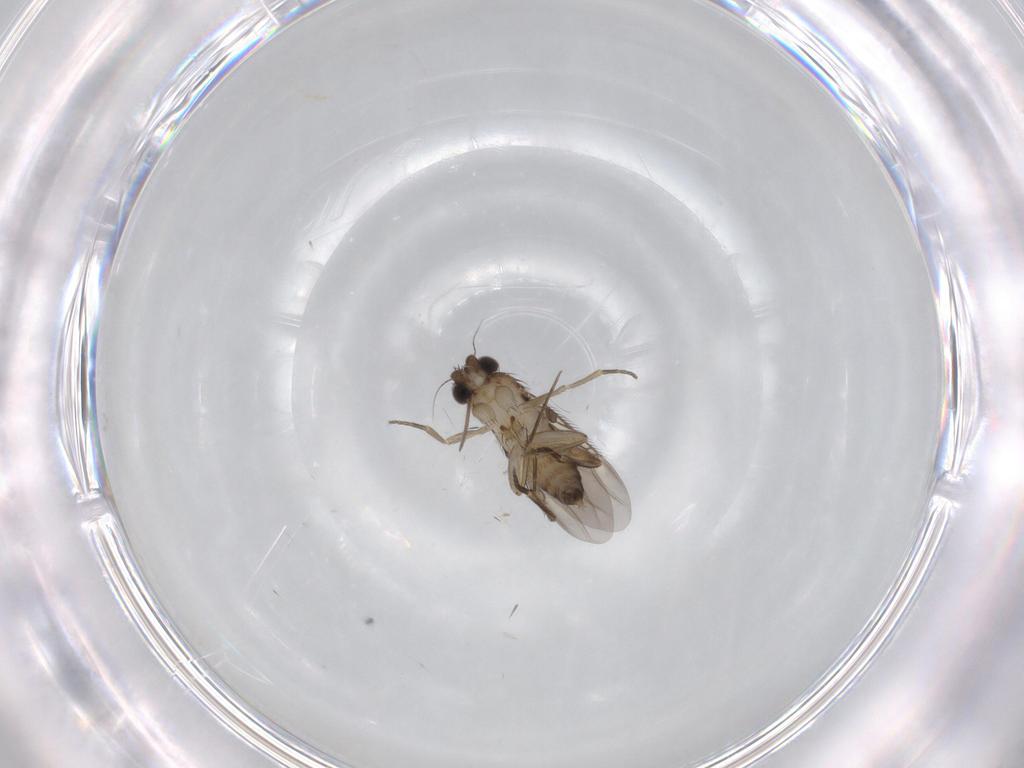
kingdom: Animalia
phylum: Arthropoda
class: Insecta
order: Diptera
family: Phoridae
